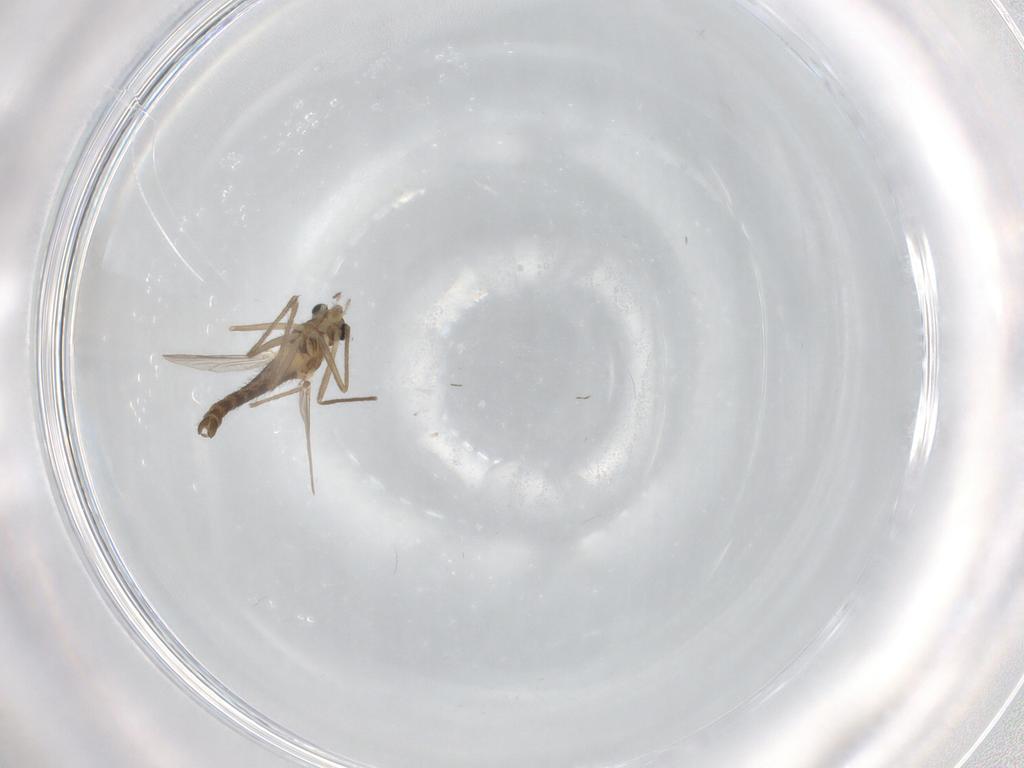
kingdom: Animalia
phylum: Arthropoda
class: Insecta
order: Diptera
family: Chironomidae
